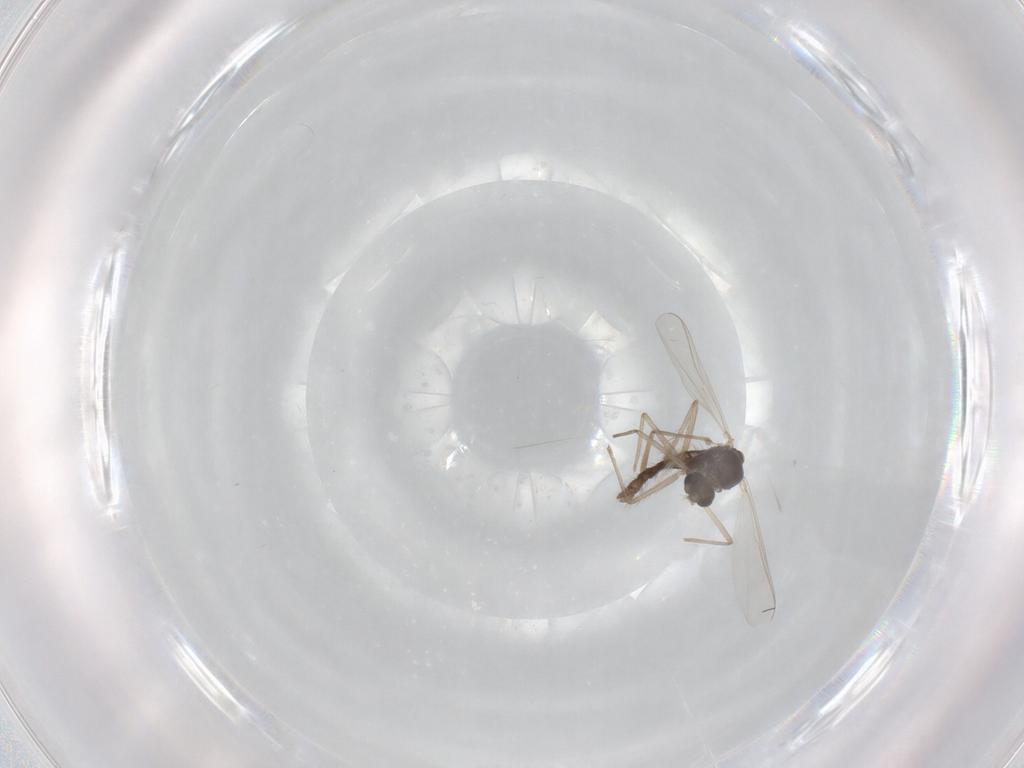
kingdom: Animalia
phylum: Arthropoda
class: Insecta
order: Diptera
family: Chironomidae
